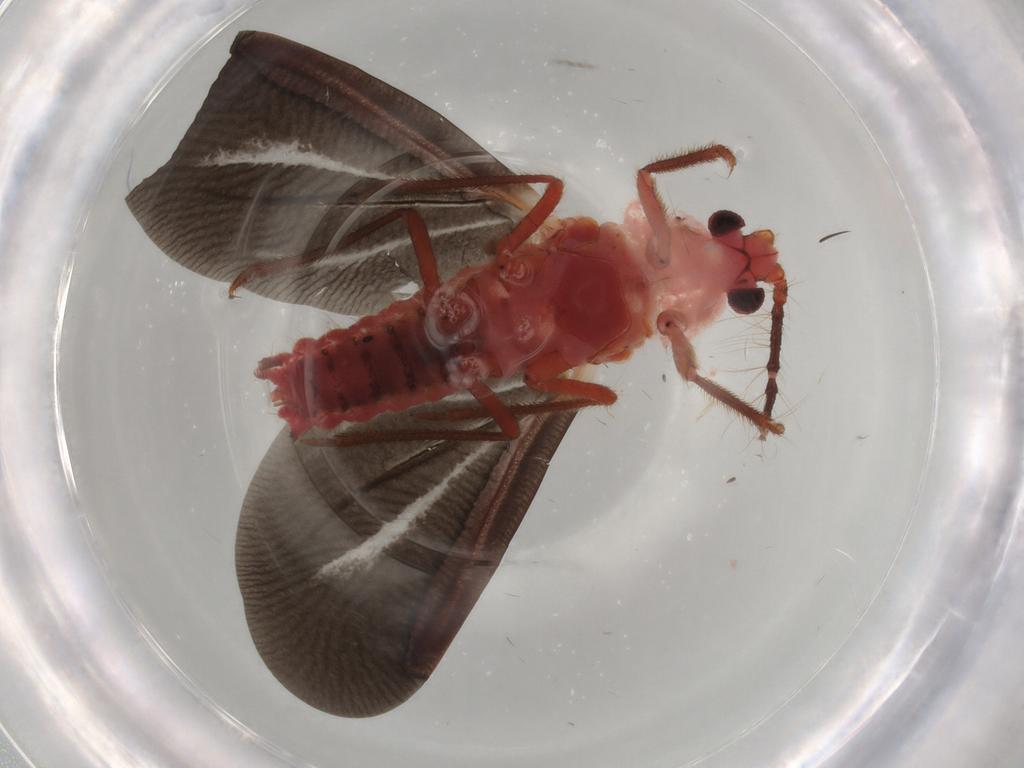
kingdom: Animalia
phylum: Arthropoda
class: Insecta
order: Hemiptera
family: Margarodidae
